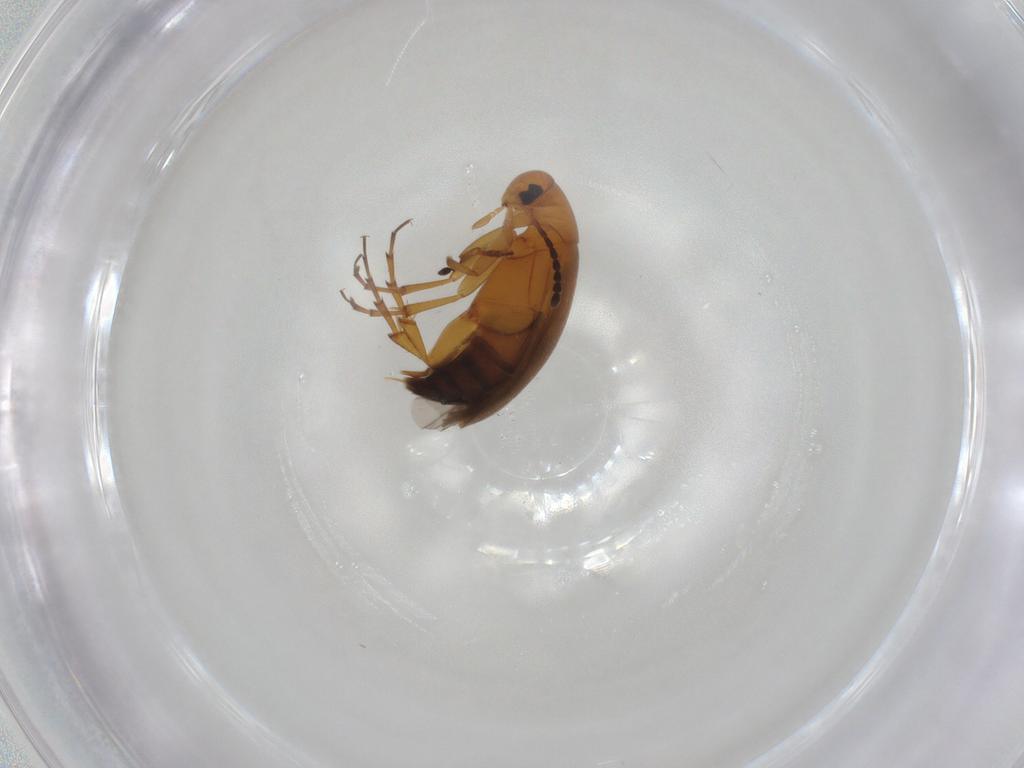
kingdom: Animalia
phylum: Arthropoda
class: Insecta
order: Coleoptera
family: Scraptiidae
